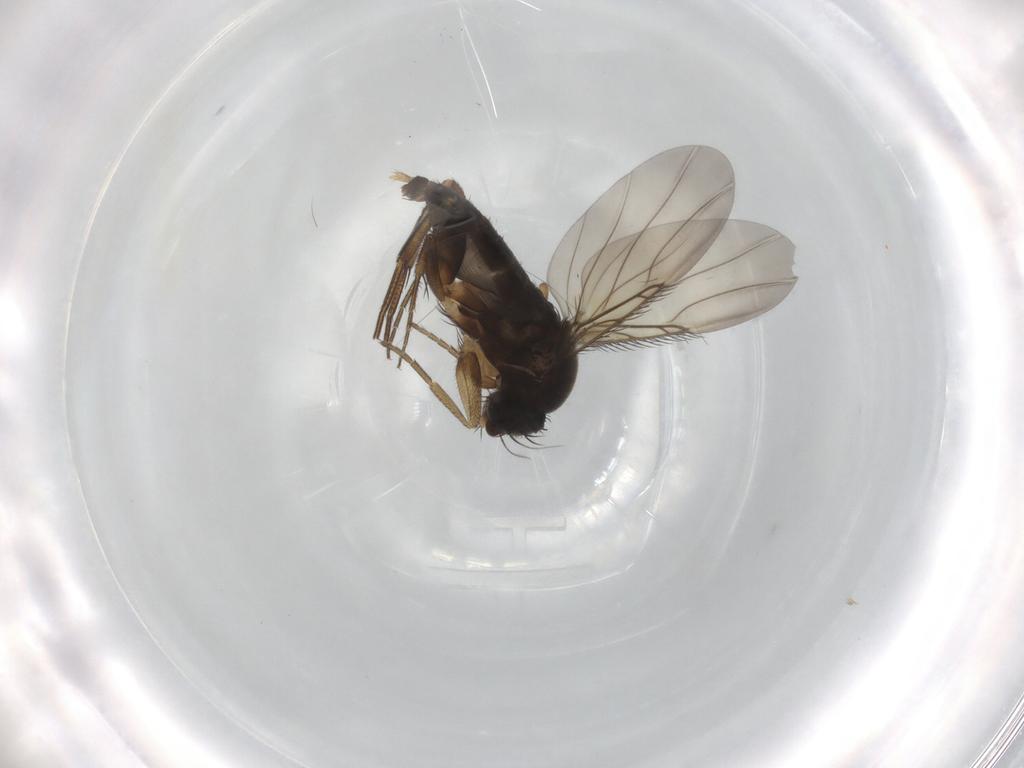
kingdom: Animalia
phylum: Arthropoda
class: Insecta
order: Diptera
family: Phoridae
